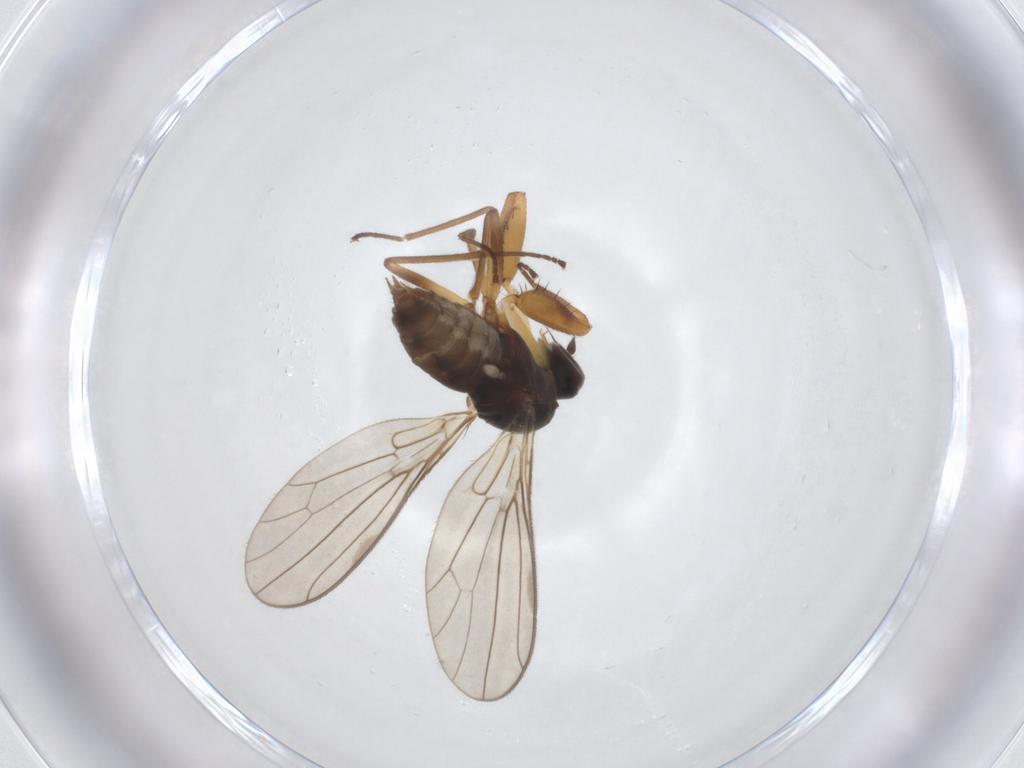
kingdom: Animalia
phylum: Arthropoda
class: Insecta
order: Diptera
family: Empididae
